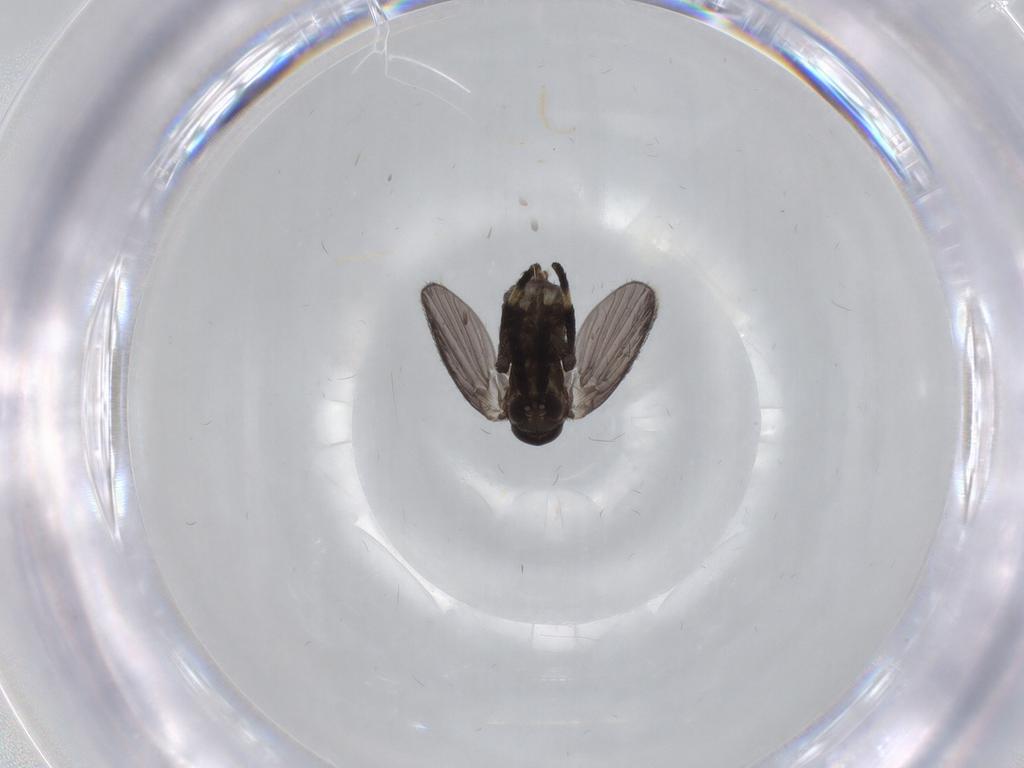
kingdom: Animalia
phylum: Arthropoda
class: Insecta
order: Diptera
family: Psychodidae
